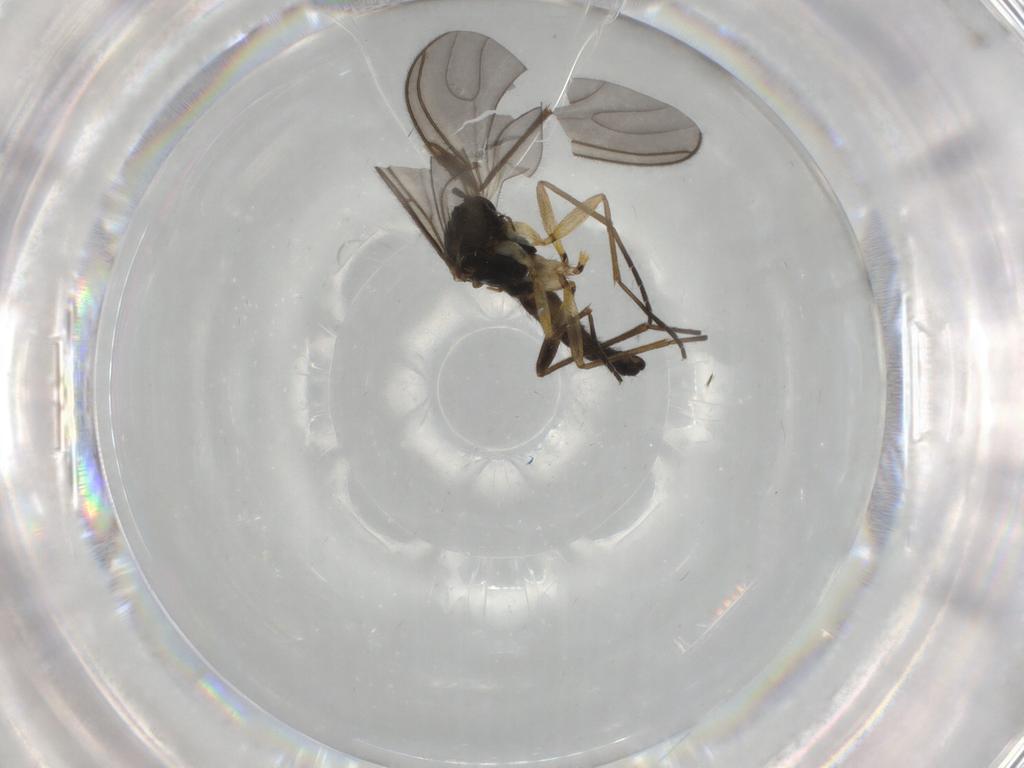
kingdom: Animalia
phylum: Arthropoda
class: Insecta
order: Diptera
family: Sciaridae
